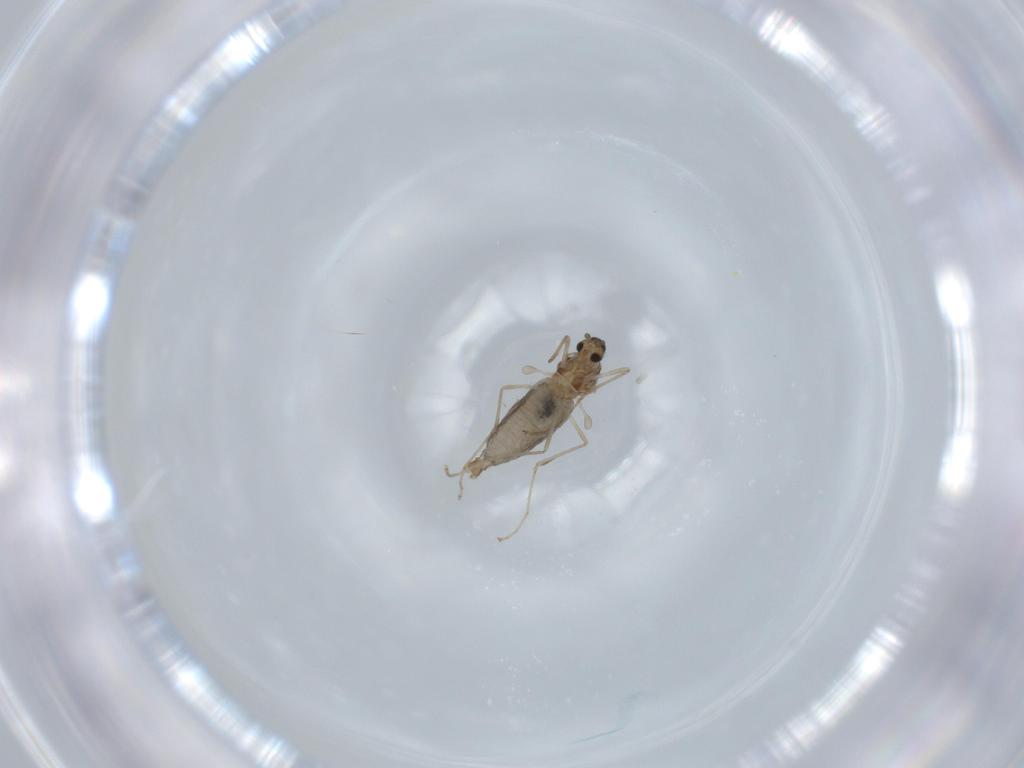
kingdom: Animalia
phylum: Arthropoda
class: Insecta
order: Diptera
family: Cecidomyiidae
